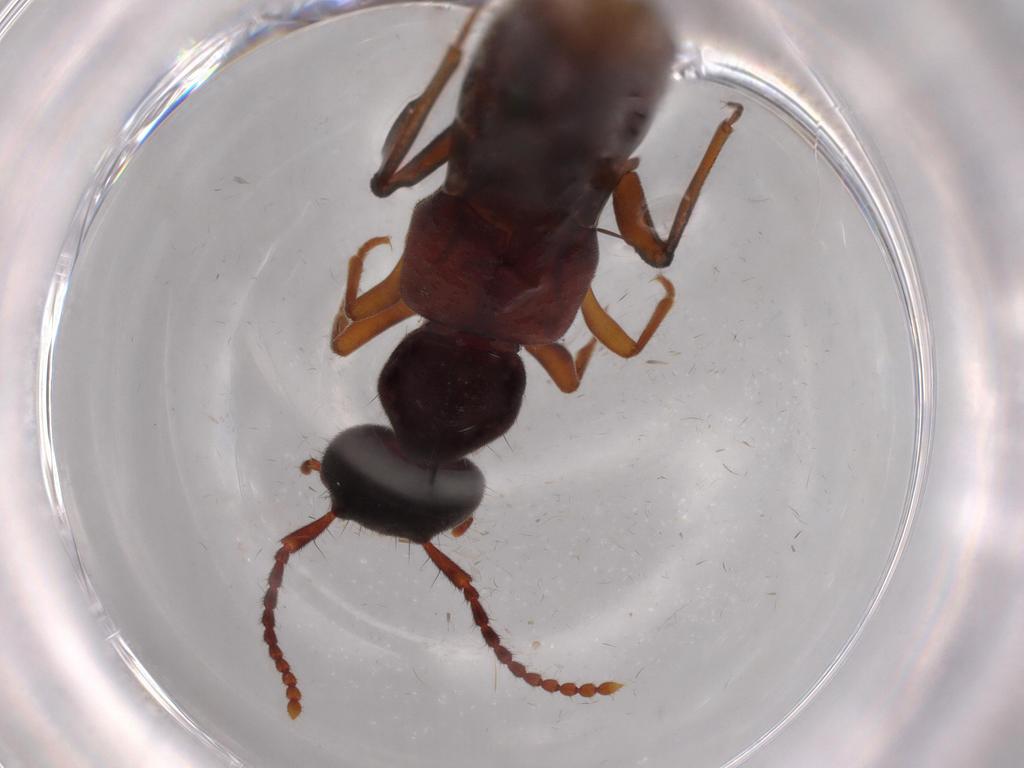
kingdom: Animalia
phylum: Arthropoda
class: Insecta
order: Coleoptera
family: Staphylinidae
